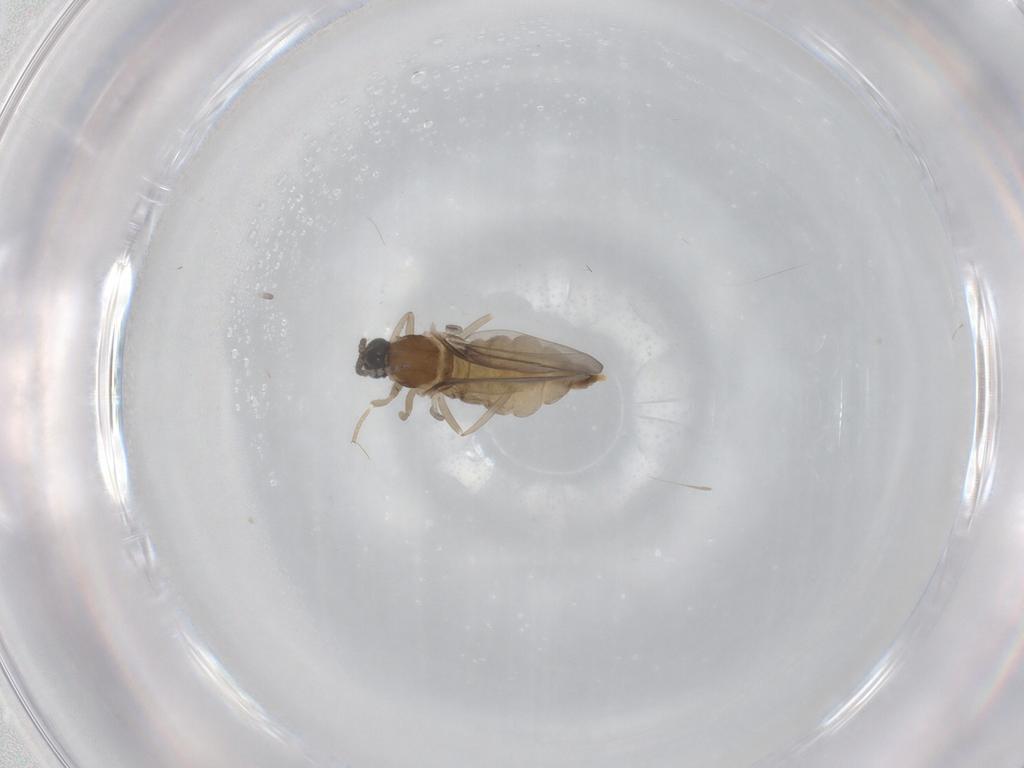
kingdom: Animalia
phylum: Arthropoda
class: Insecta
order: Diptera
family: Cecidomyiidae
